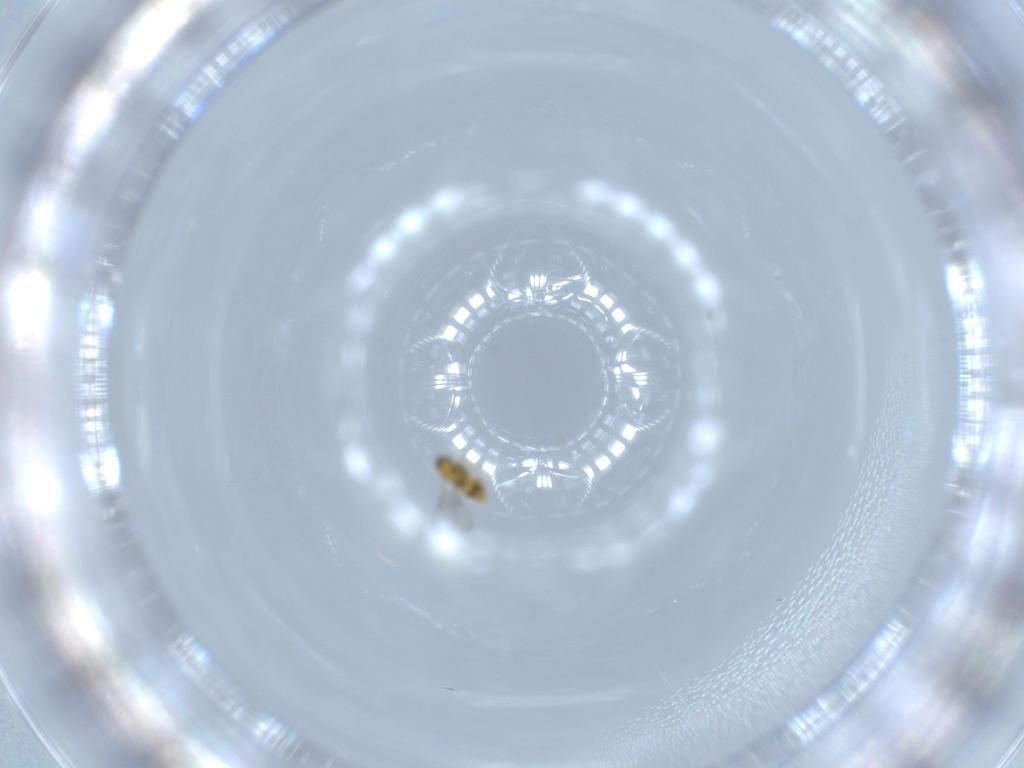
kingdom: Animalia
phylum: Arthropoda
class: Insecta
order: Hymenoptera
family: Aphelinidae
